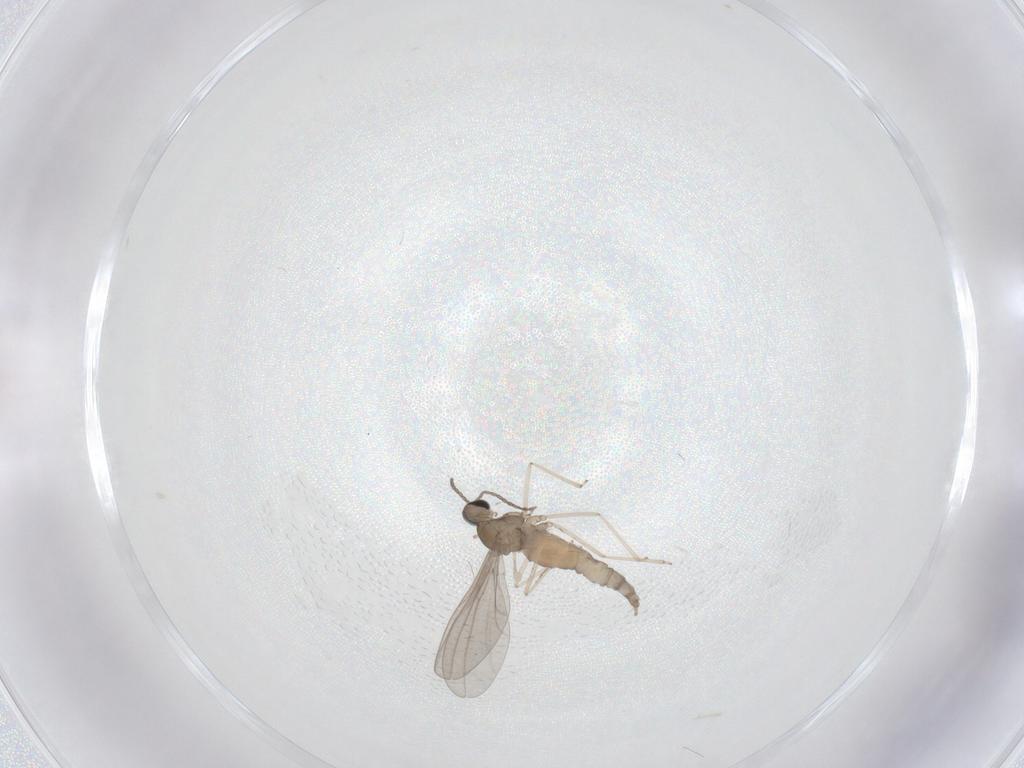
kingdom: Animalia
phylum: Arthropoda
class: Insecta
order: Diptera
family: Cecidomyiidae
